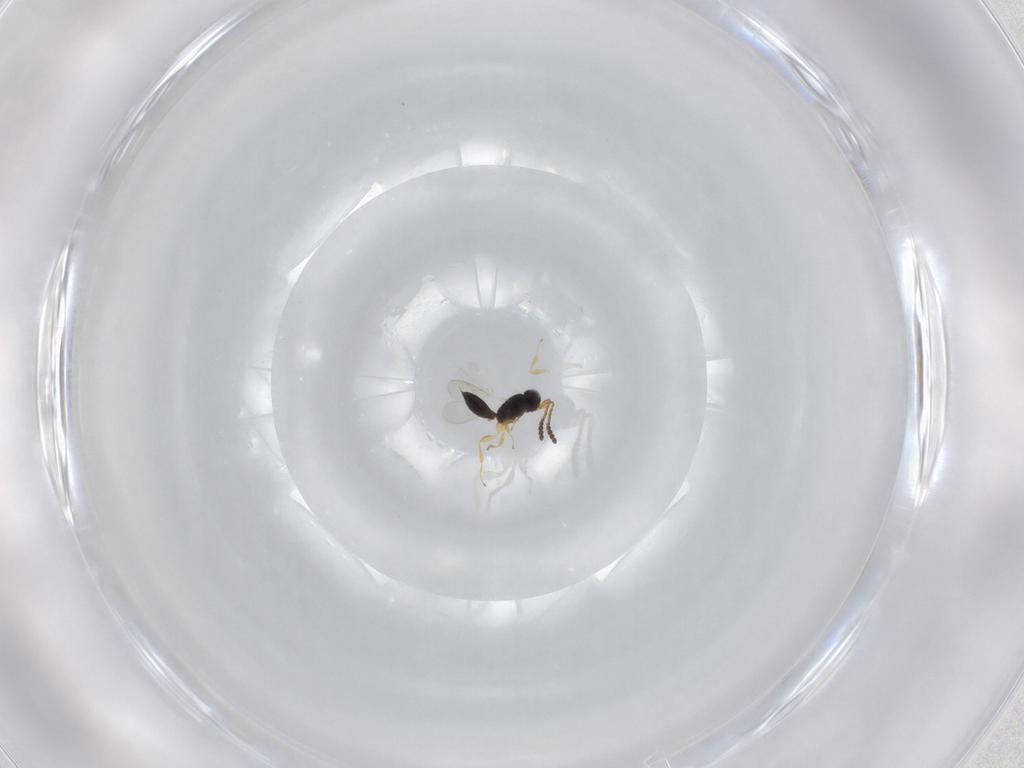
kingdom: Animalia
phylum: Arthropoda
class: Insecta
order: Hymenoptera
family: Scelionidae
